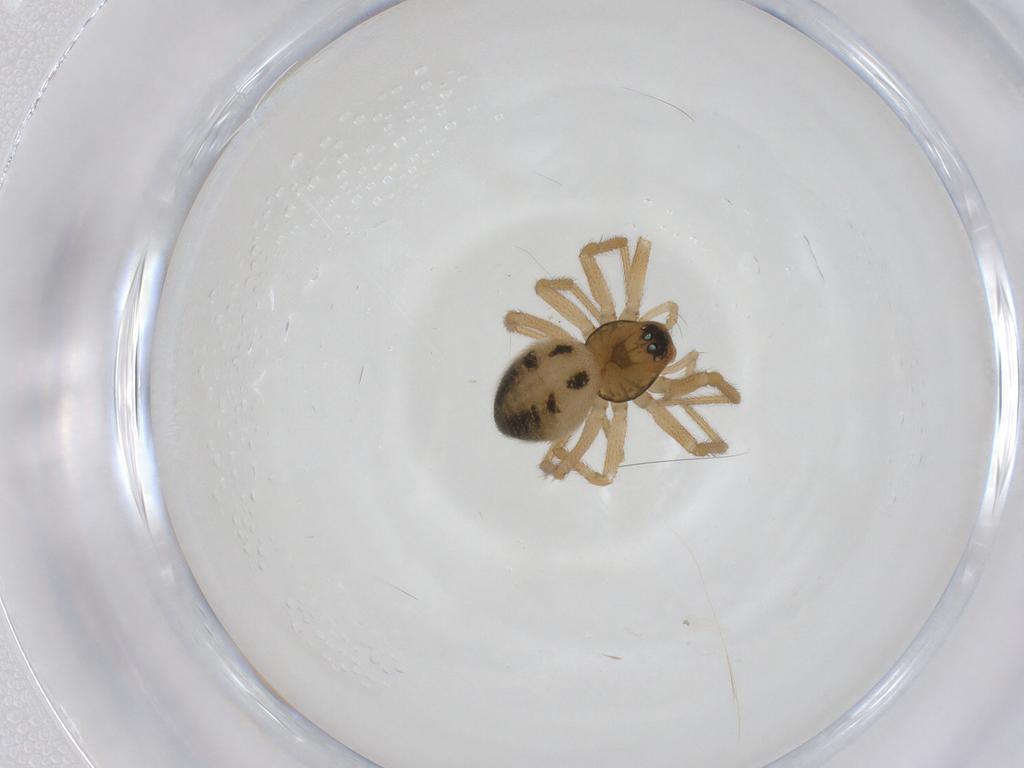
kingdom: Animalia
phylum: Arthropoda
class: Arachnida
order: Araneae
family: Linyphiidae
